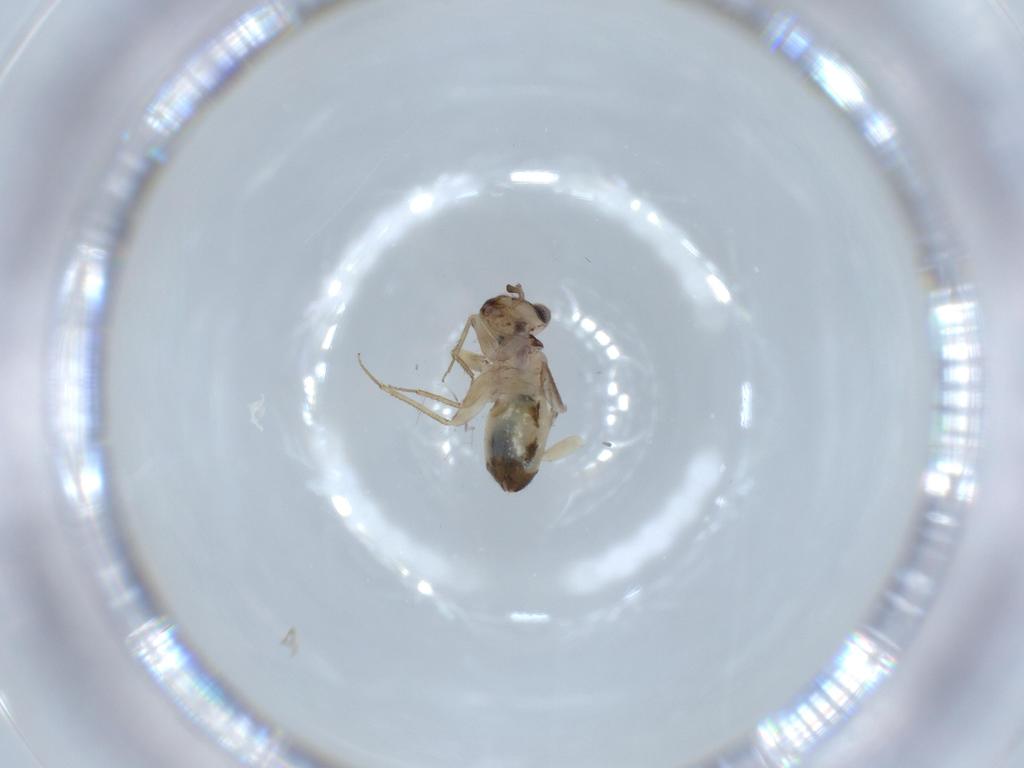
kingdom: Animalia
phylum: Arthropoda
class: Insecta
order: Psocodea
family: Lepidopsocidae
